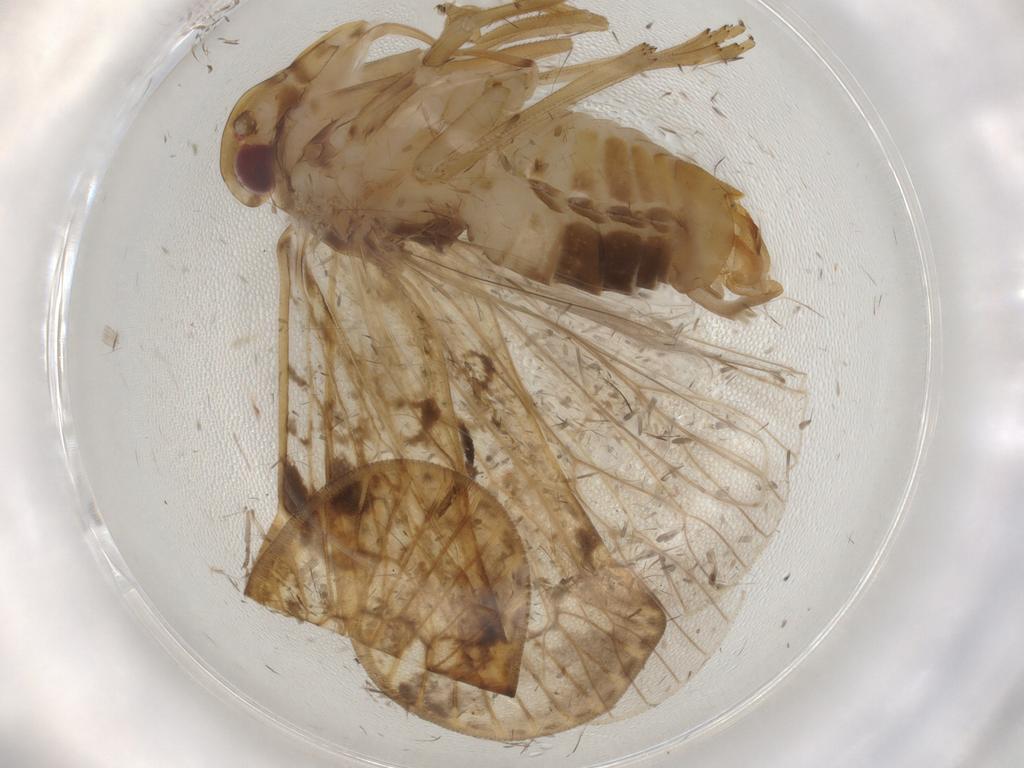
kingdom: Animalia
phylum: Arthropoda
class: Insecta
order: Hemiptera
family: Cixiidae
